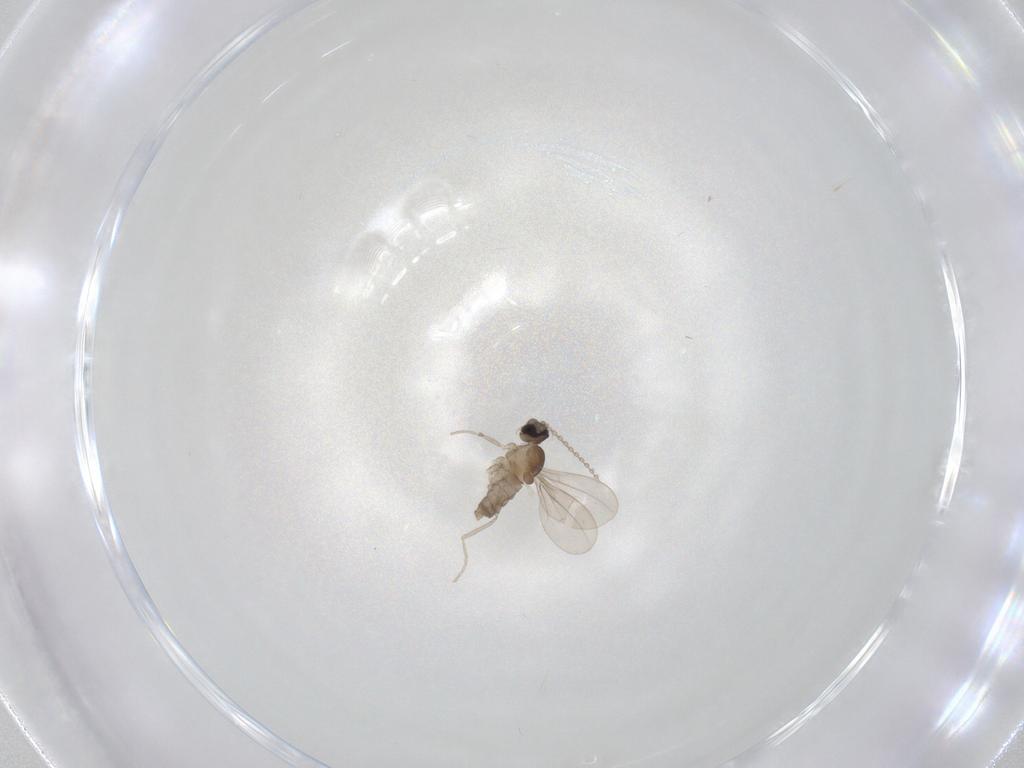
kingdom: Animalia
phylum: Arthropoda
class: Insecta
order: Diptera
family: Cecidomyiidae
